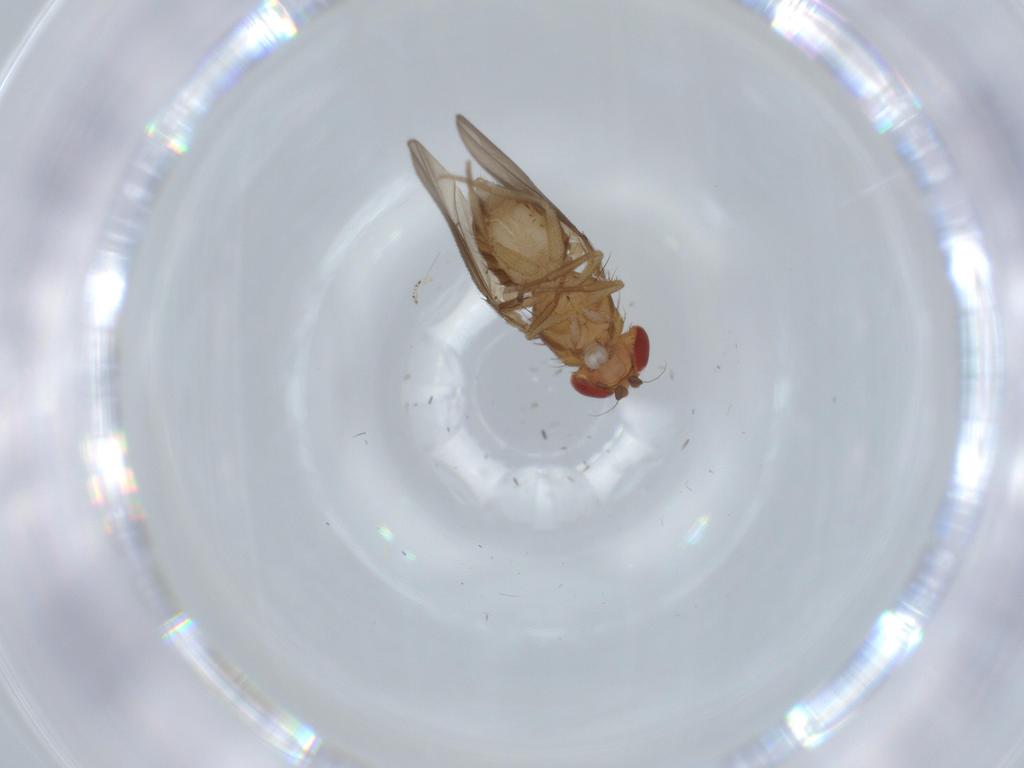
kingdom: Animalia
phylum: Arthropoda
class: Insecta
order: Diptera
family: Drosophilidae
